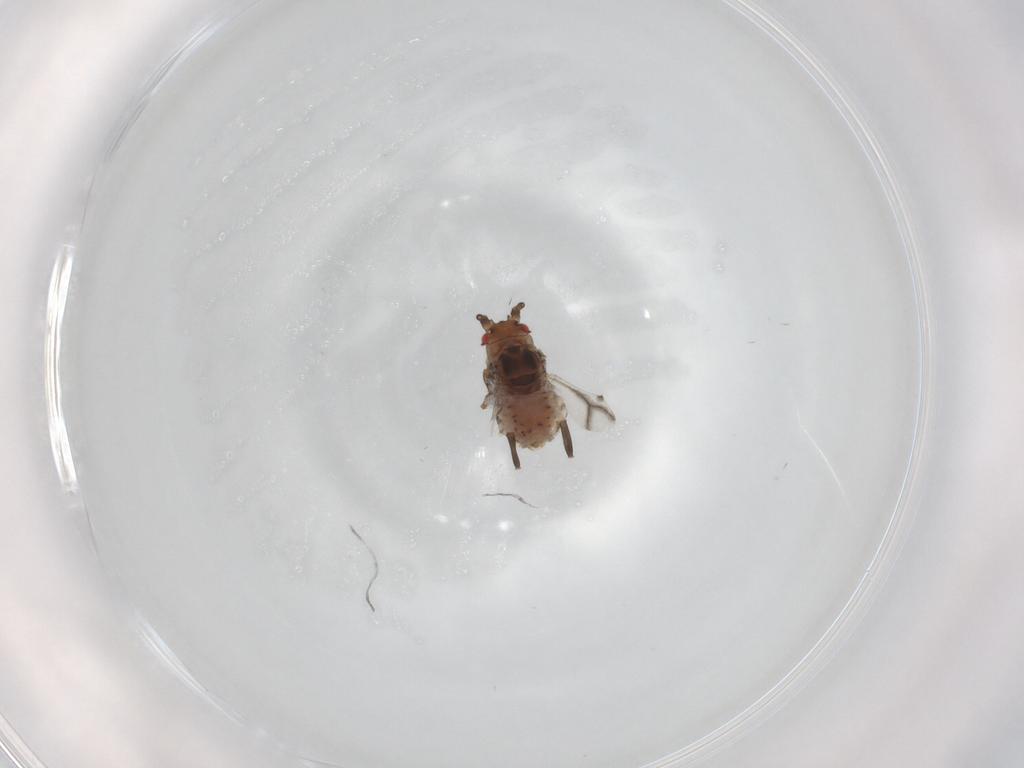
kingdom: Animalia
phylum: Arthropoda
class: Insecta
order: Hemiptera
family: Aphididae
